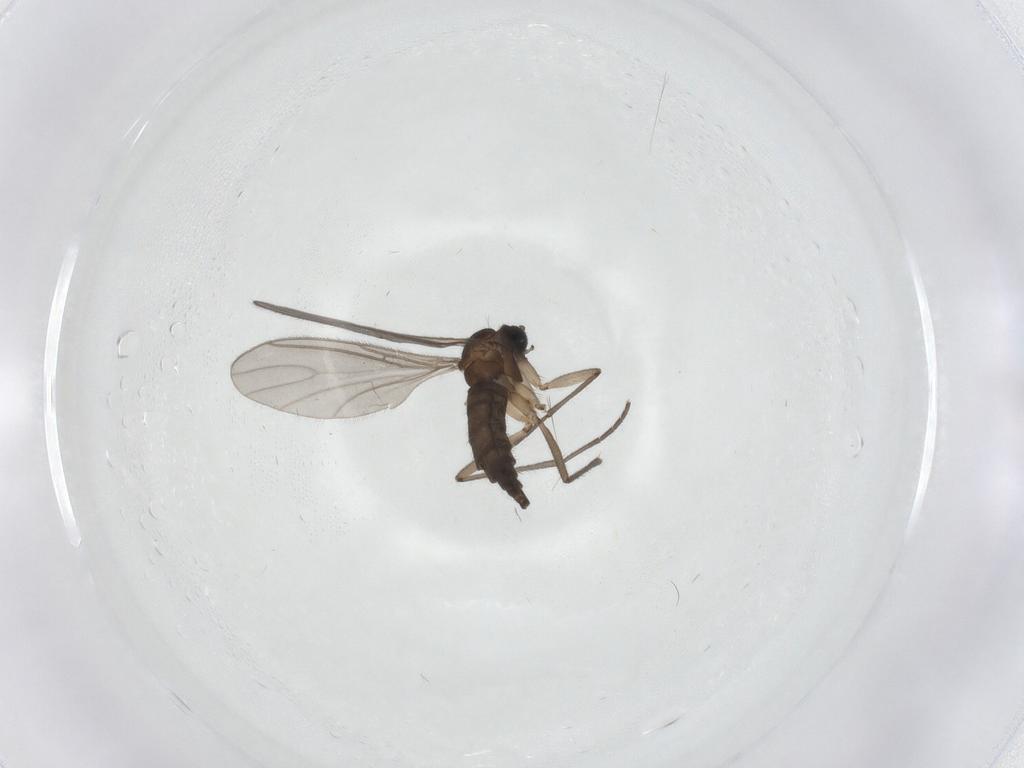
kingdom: Animalia
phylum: Arthropoda
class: Insecta
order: Diptera
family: Sciaridae
